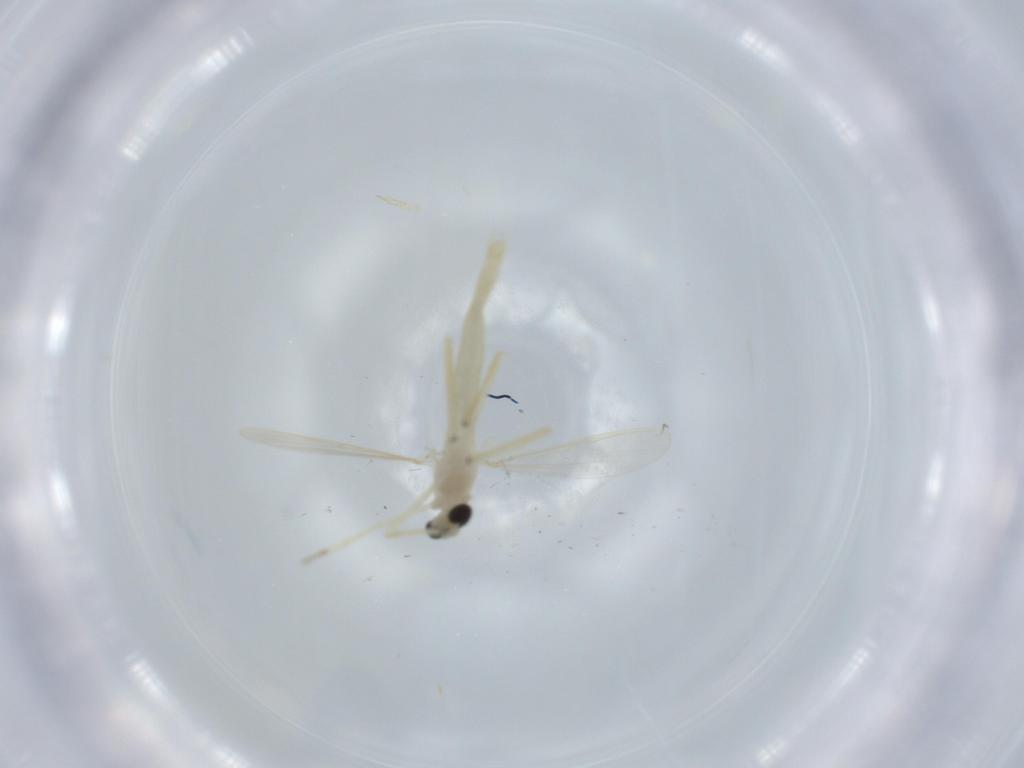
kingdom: Animalia
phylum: Arthropoda
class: Insecta
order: Diptera
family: Chironomidae
